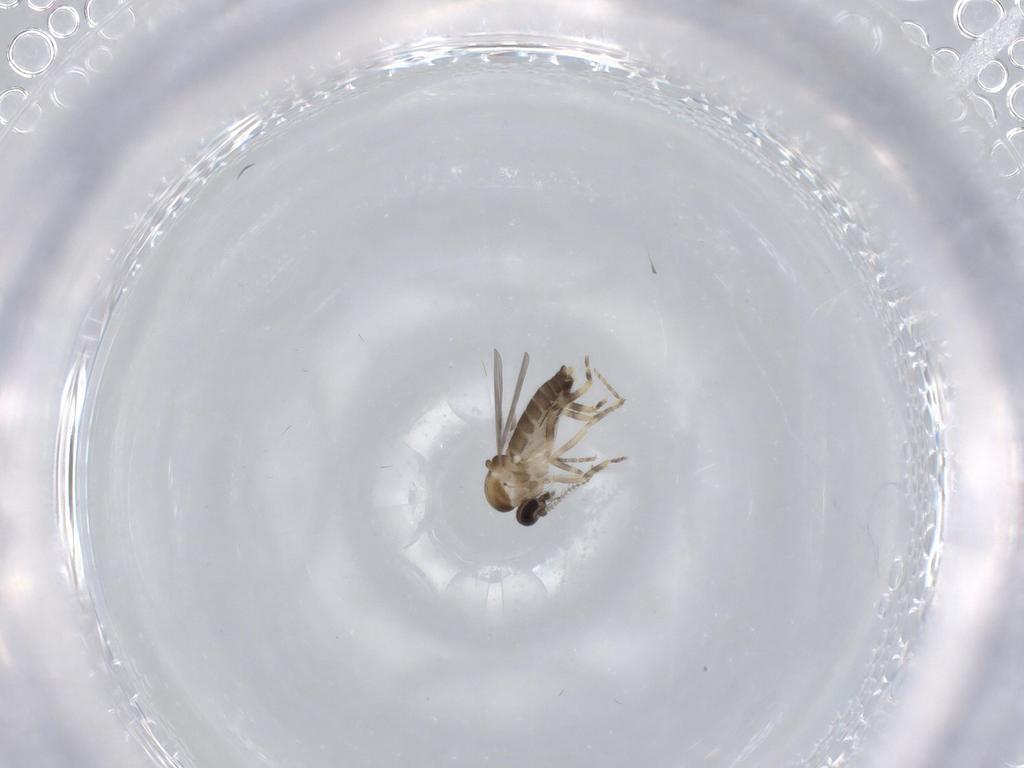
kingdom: Animalia
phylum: Arthropoda
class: Insecta
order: Diptera
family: Ceratopogonidae
